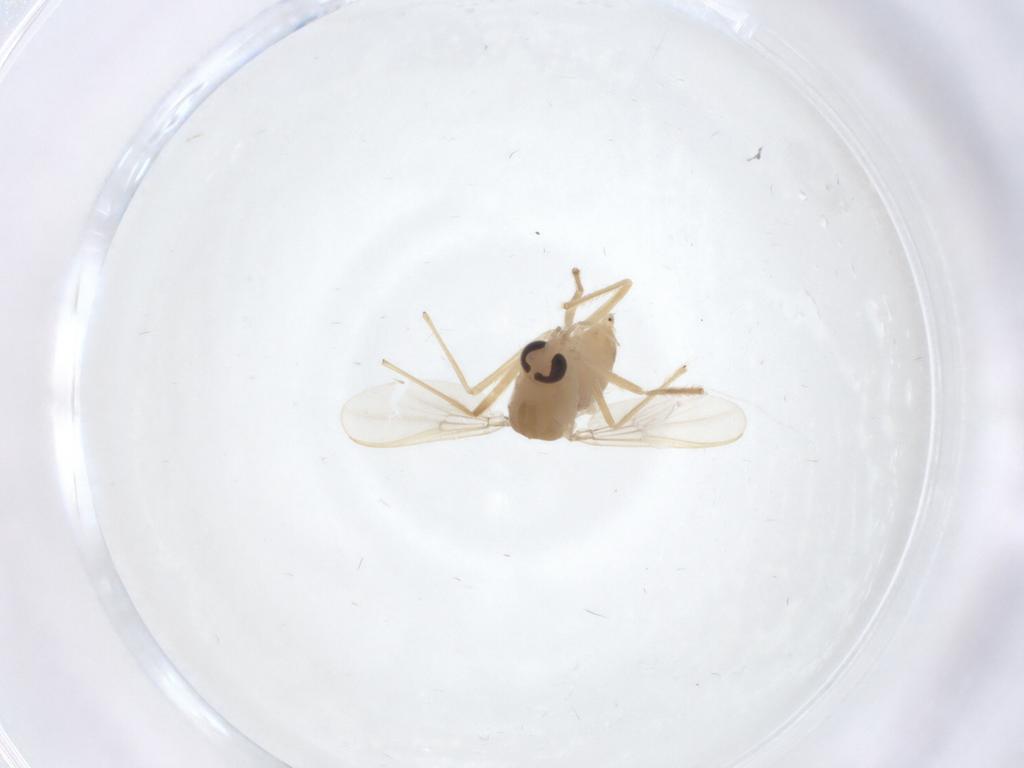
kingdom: Animalia
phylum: Arthropoda
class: Insecta
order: Diptera
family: Chironomidae
